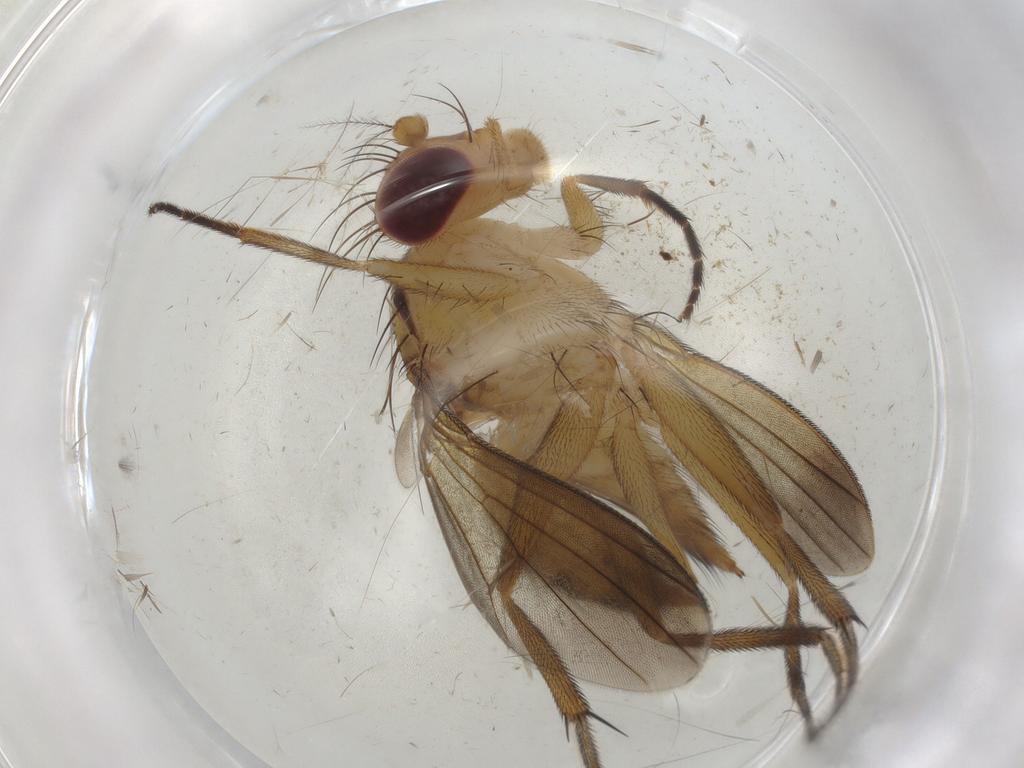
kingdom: Animalia
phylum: Arthropoda
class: Insecta
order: Diptera
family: Clusiidae
